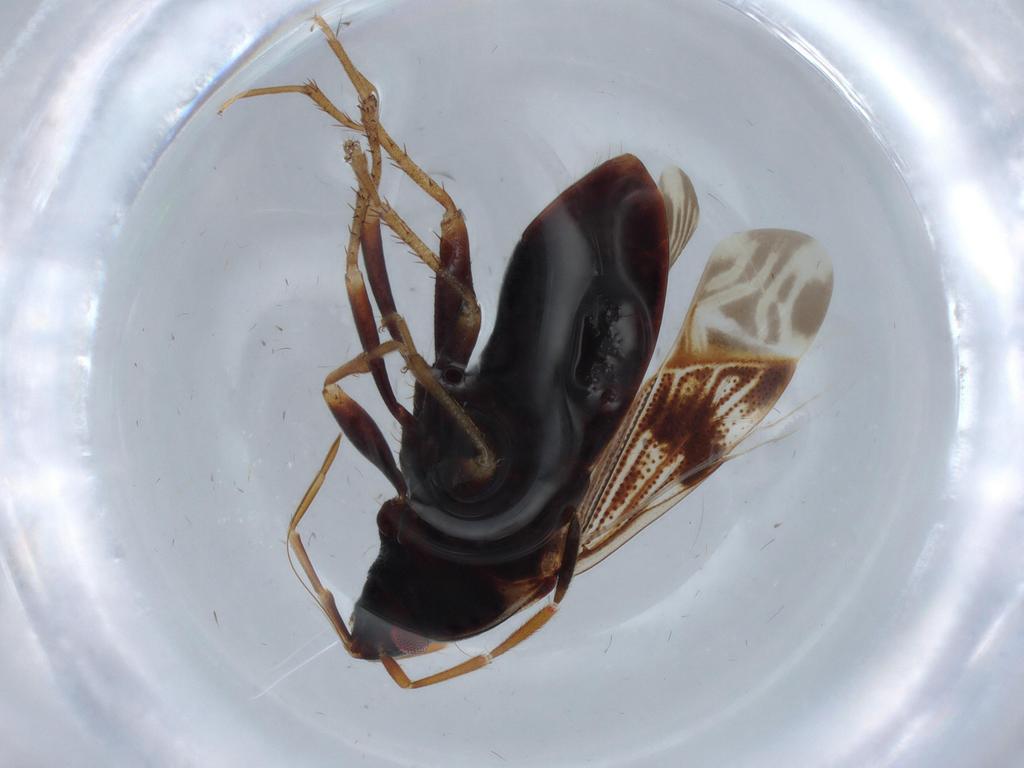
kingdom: Animalia
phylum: Arthropoda
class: Insecta
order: Hemiptera
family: Rhyparochromidae
